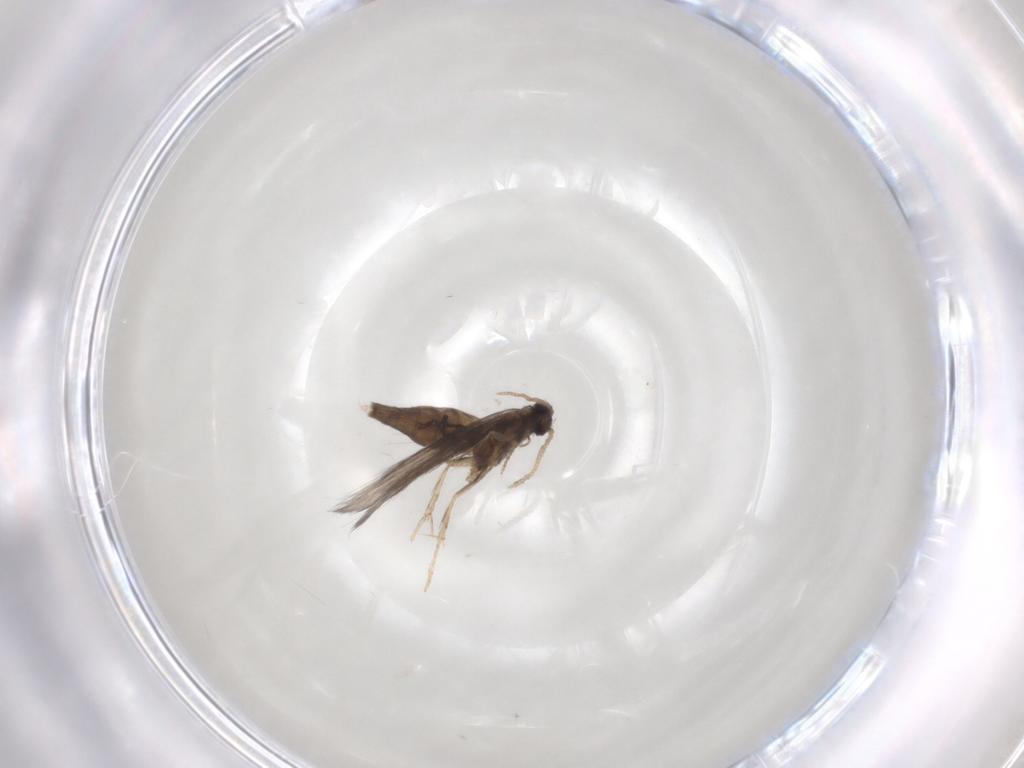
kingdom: Animalia
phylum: Arthropoda
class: Insecta
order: Trichoptera
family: Hydroptilidae
